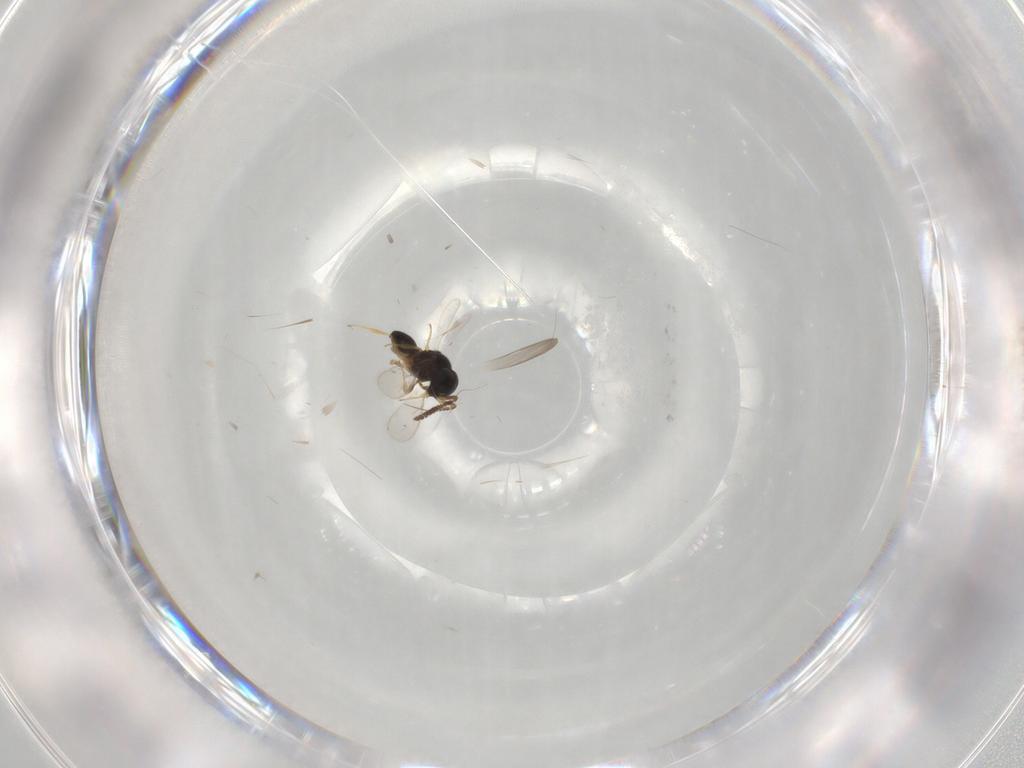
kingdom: Animalia
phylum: Arthropoda
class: Insecta
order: Hymenoptera
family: Scelionidae
